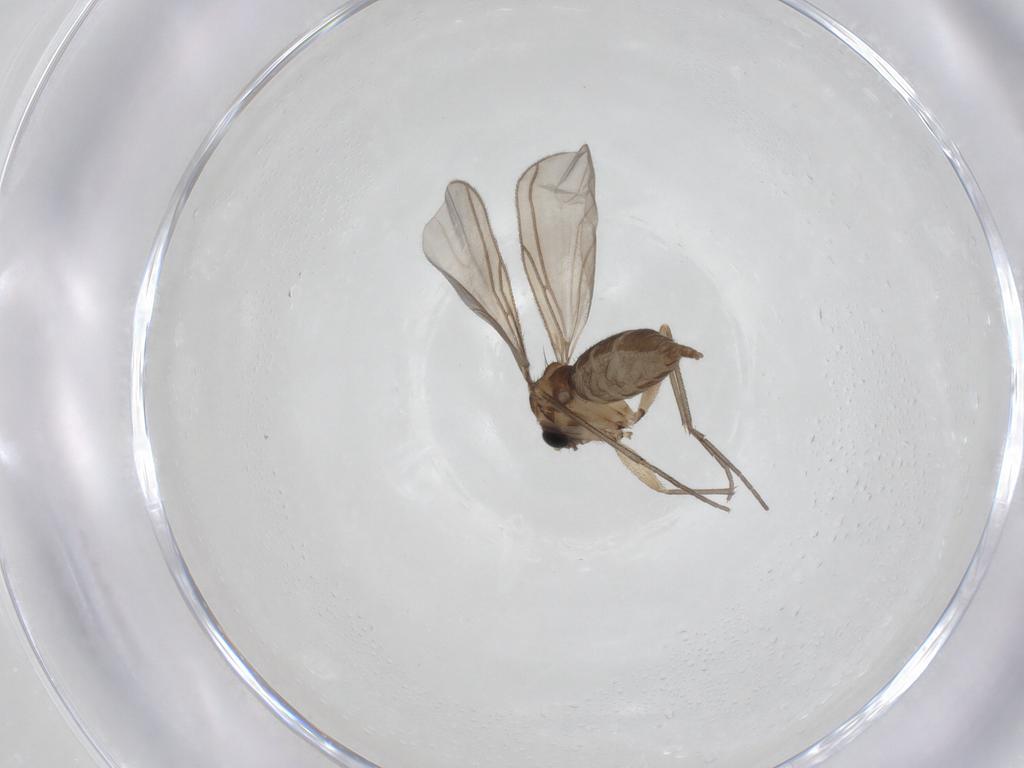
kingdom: Animalia
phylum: Arthropoda
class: Insecta
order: Diptera
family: Sciaridae
